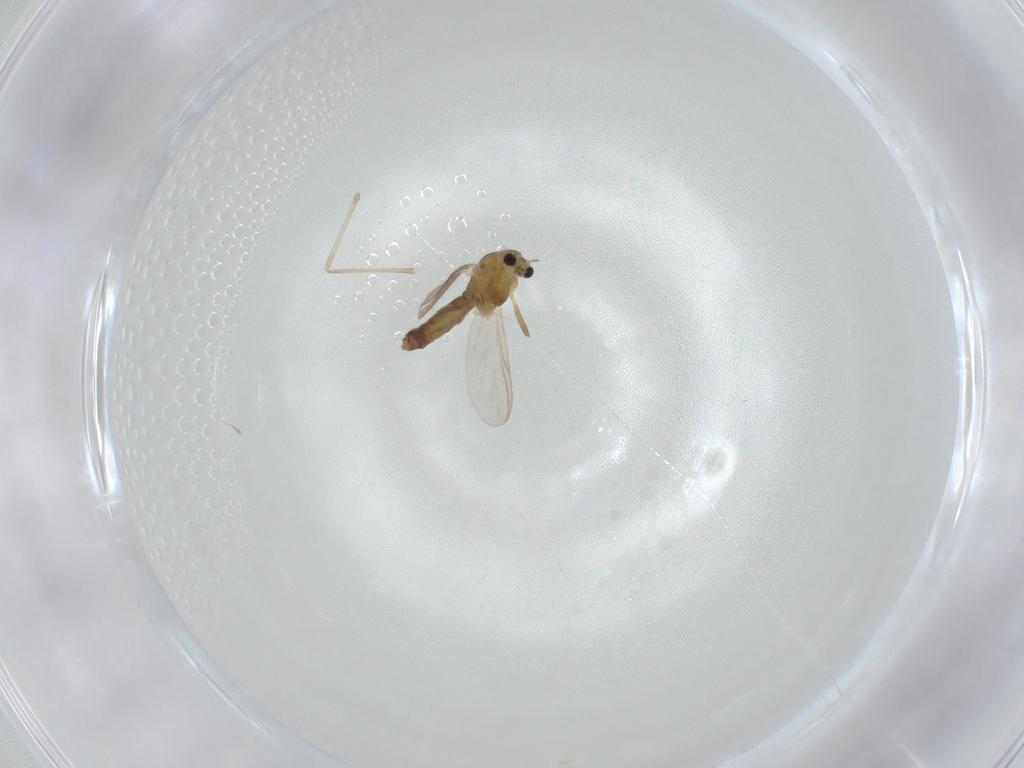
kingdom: Animalia
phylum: Arthropoda
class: Insecta
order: Diptera
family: Chironomidae
